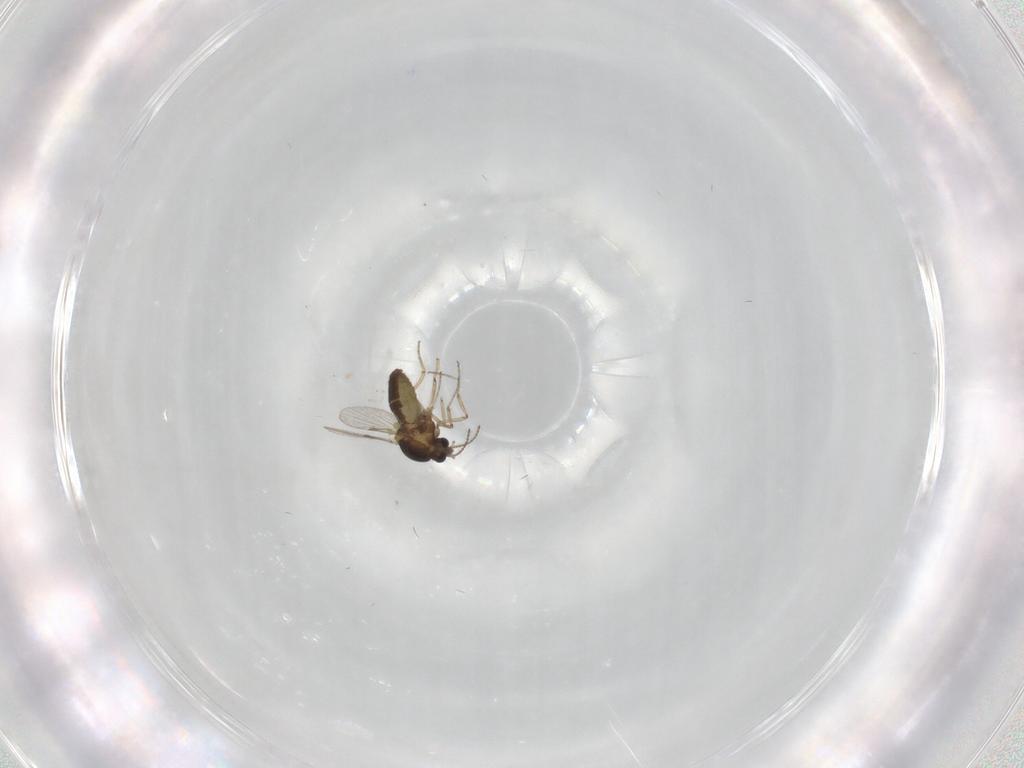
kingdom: Animalia
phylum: Arthropoda
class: Insecta
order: Diptera
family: Ceratopogonidae
